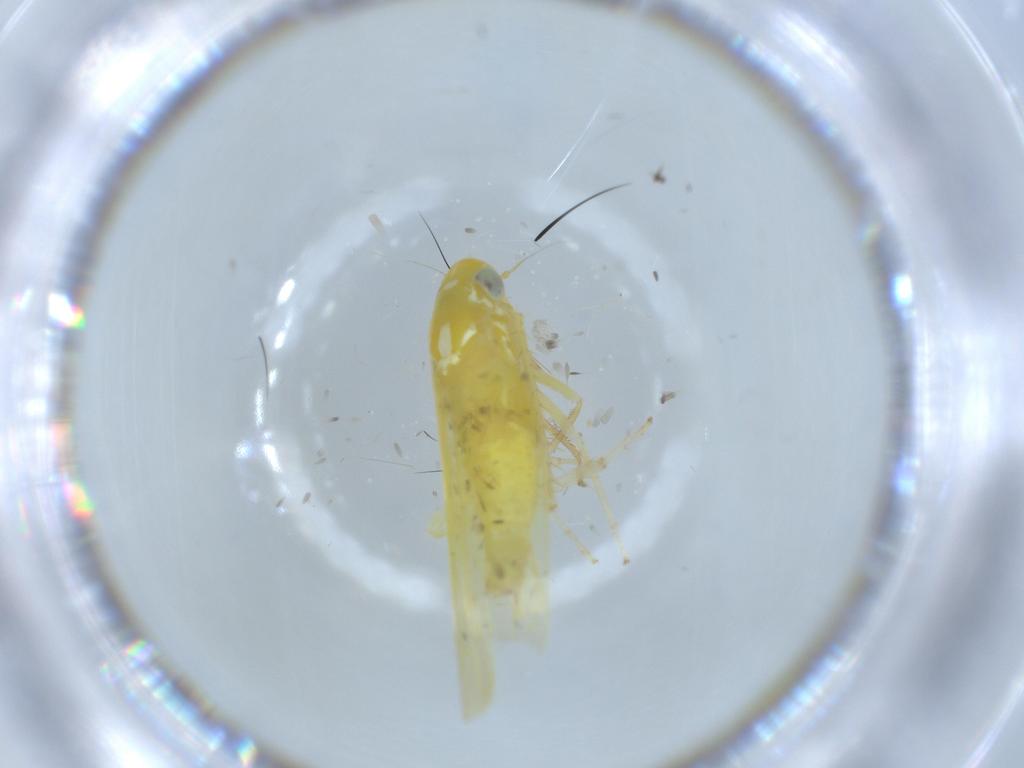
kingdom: Animalia
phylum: Arthropoda
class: Insecta
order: Hemiptera
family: Cicadellidae
